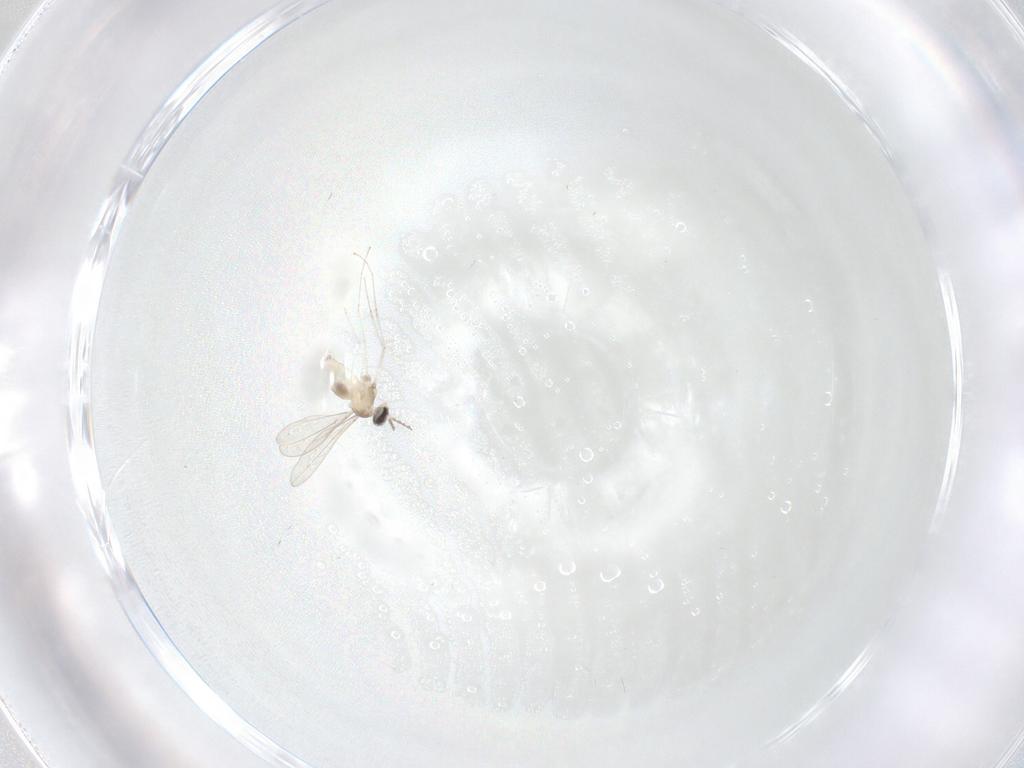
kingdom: Animalia
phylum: Arthropoda
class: Insecta
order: Diptera
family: Cecidomyiidae
